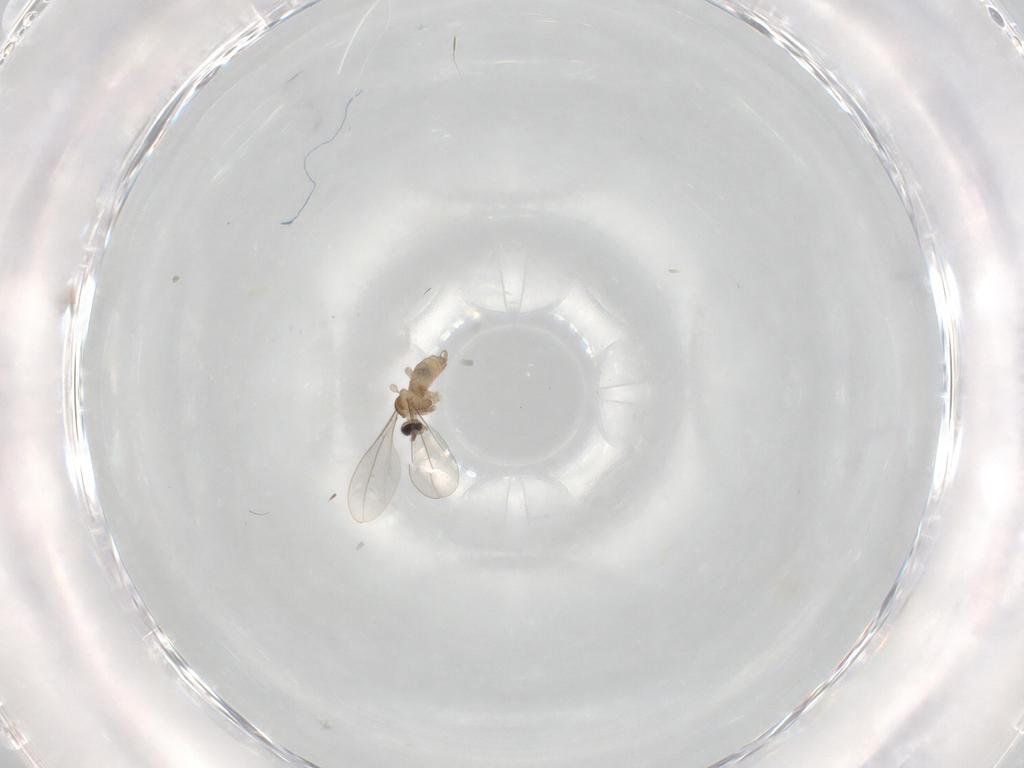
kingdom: Animalia
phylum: Arthropoda
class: Insecta
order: Diptera
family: Cecidomyiidae
